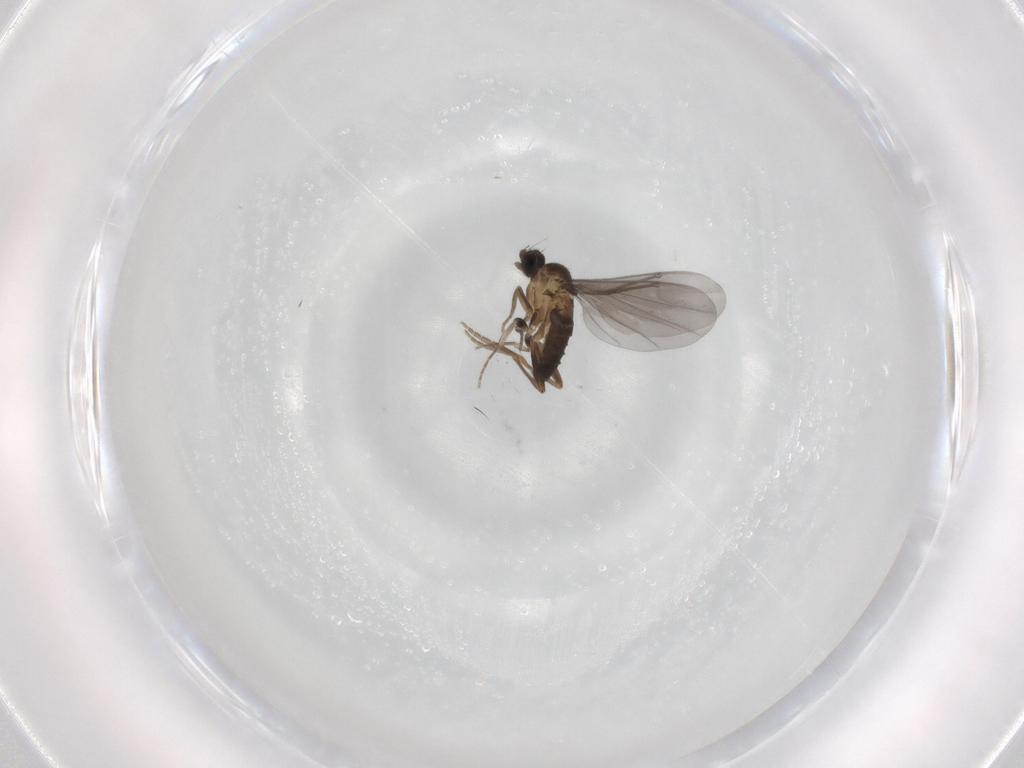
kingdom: Animalia
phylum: Arthropoda
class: Insecta
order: Diptera
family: Phoridae
